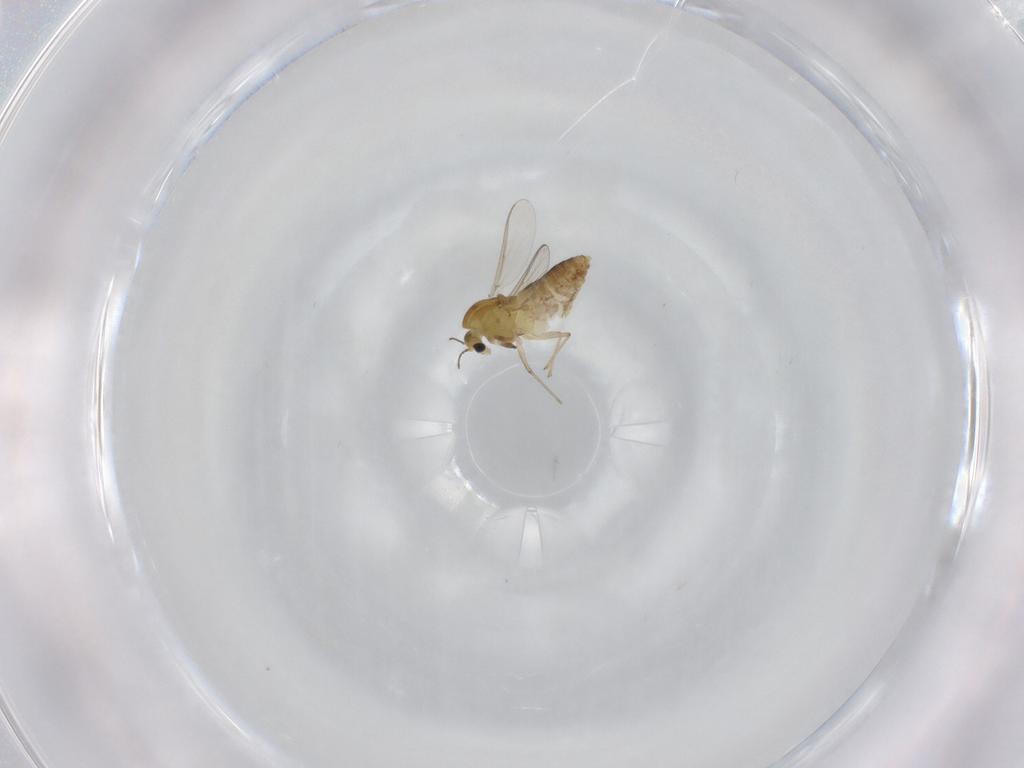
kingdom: Animalia
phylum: Arthropoda
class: Insecta
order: Diptera
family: Chironomidae
